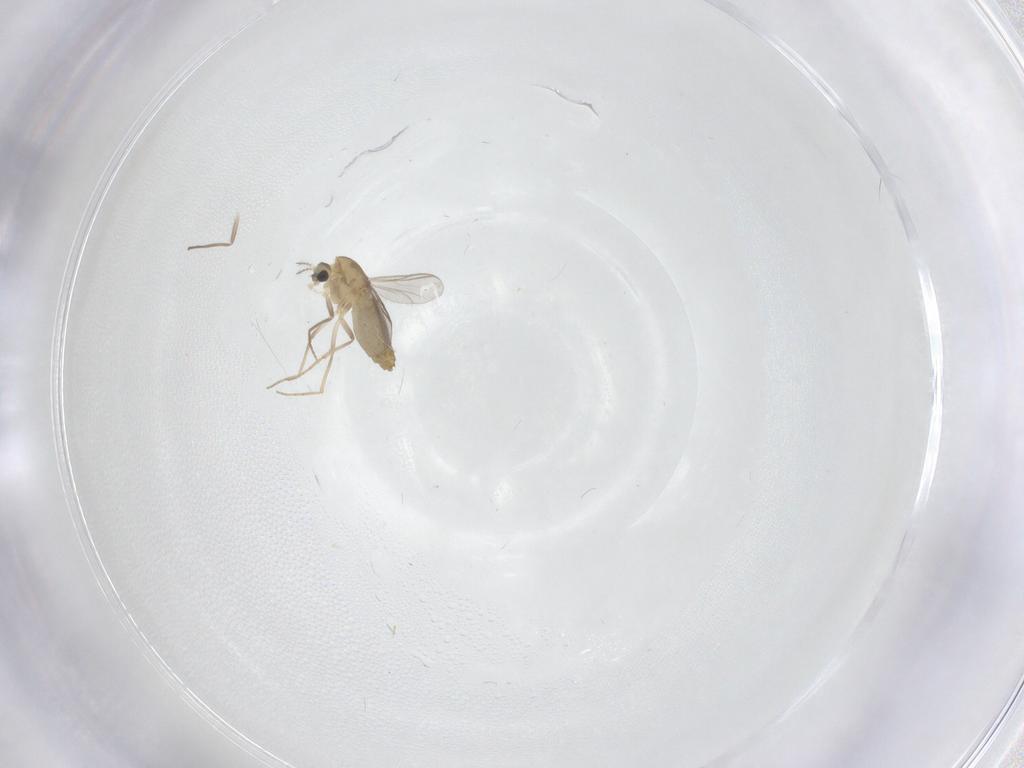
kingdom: Animalia
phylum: Arthropoda
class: Insecta
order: Diptera
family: Chironomidae
